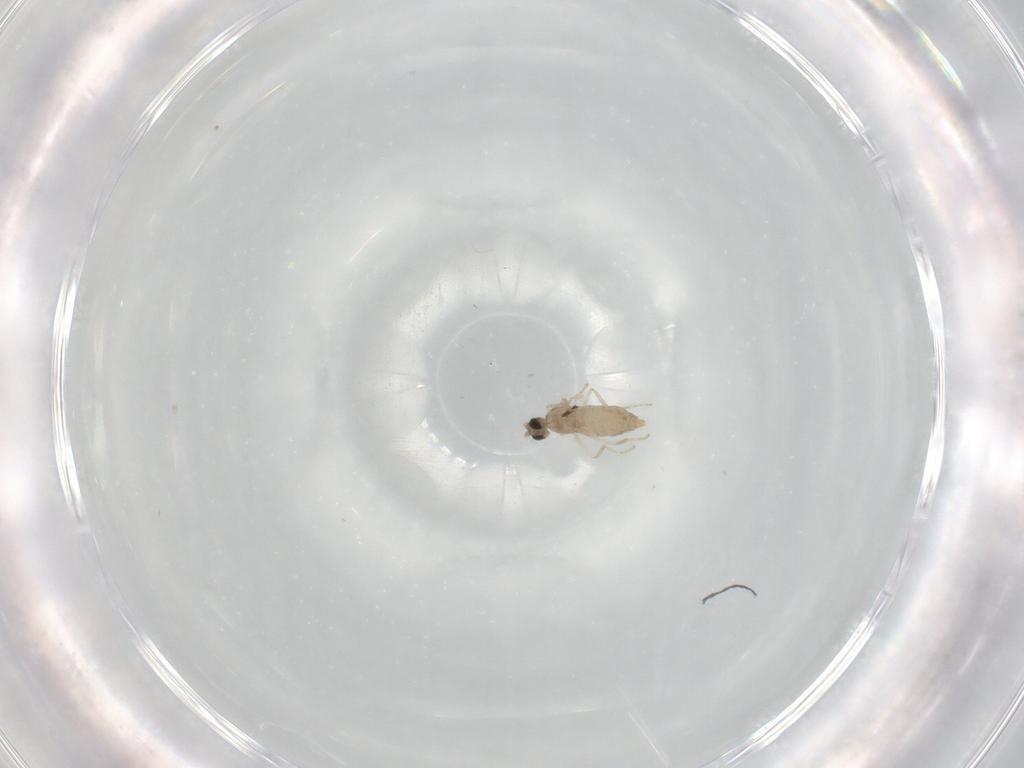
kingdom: Animalia
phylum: Arthropoda
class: Insecta
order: Diptera
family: Cecidomyiidae
